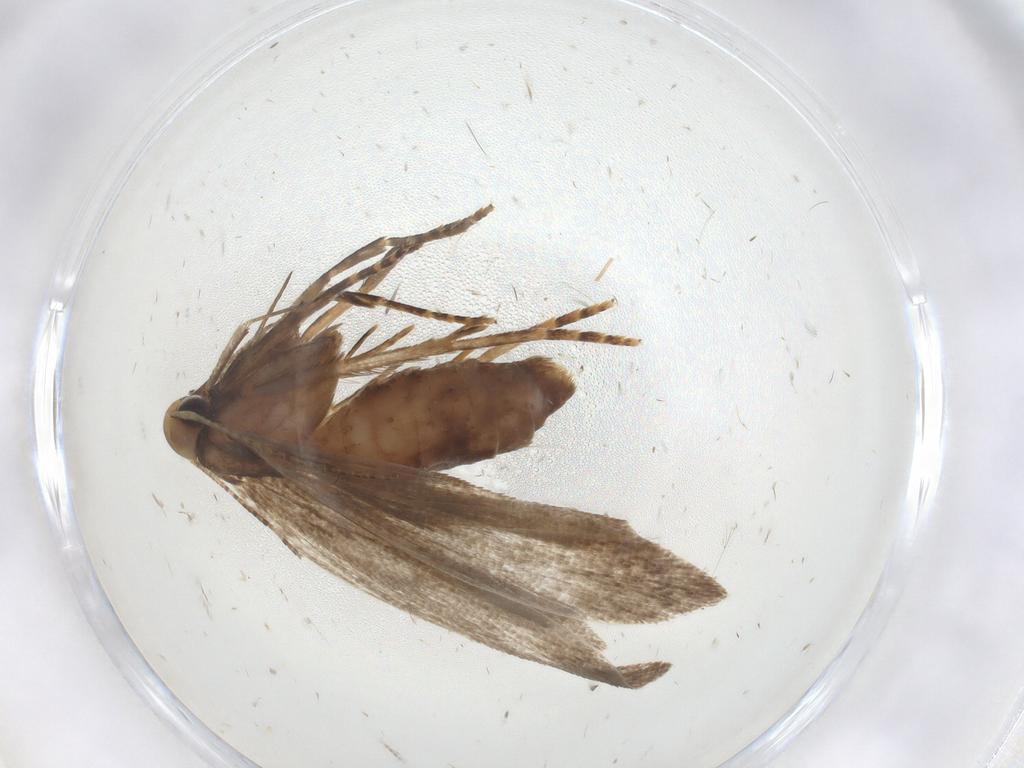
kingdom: Animalia
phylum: Arthropoda
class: Insecta
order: Lepidoptera
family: Gelechiidae
